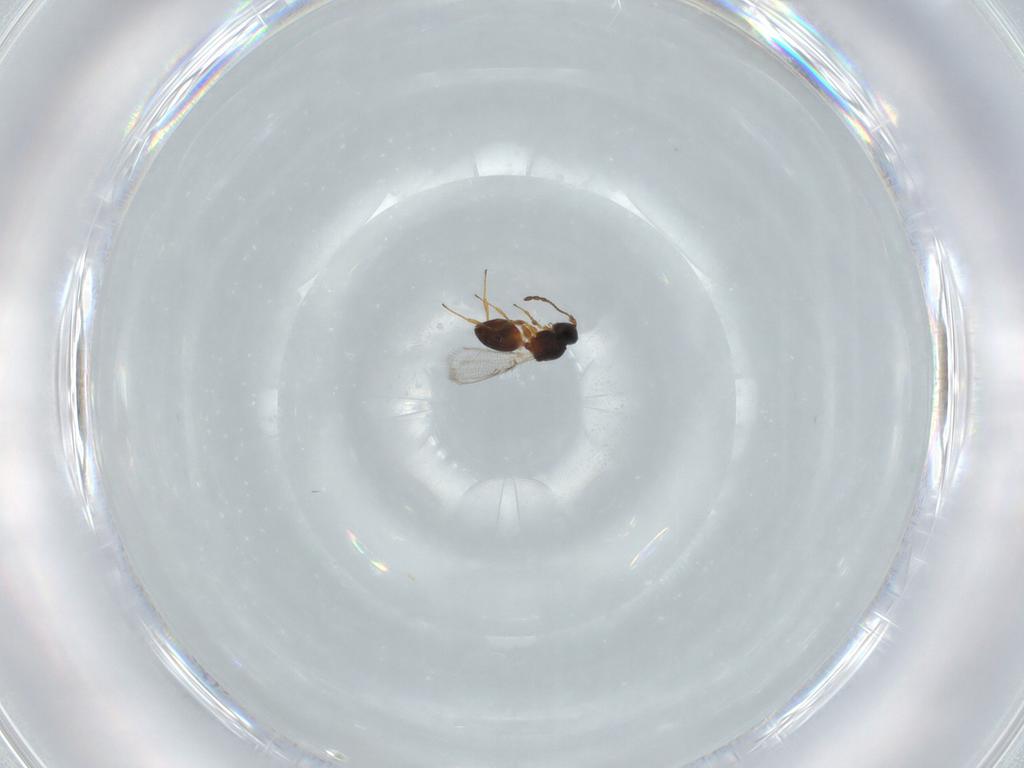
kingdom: Animalia
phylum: Arthropoda
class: Insecta
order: Hymenoptera
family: Figitidae
